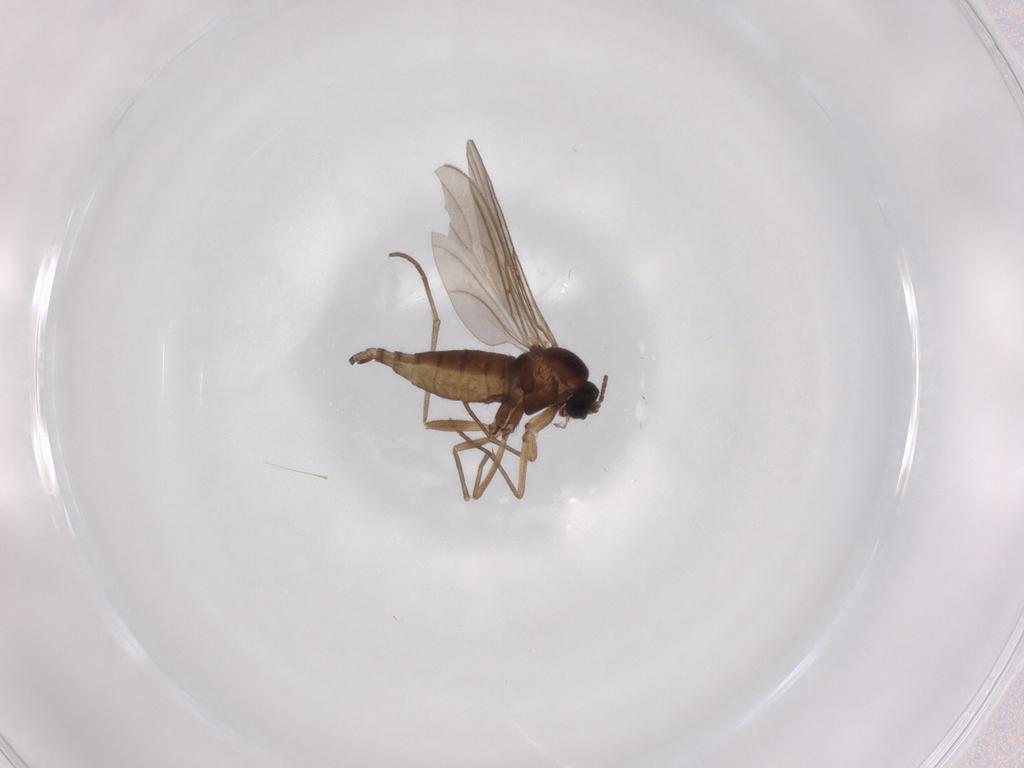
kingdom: Animalia
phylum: Arthropoda
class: Insecta
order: Diptera
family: Sciaridae
